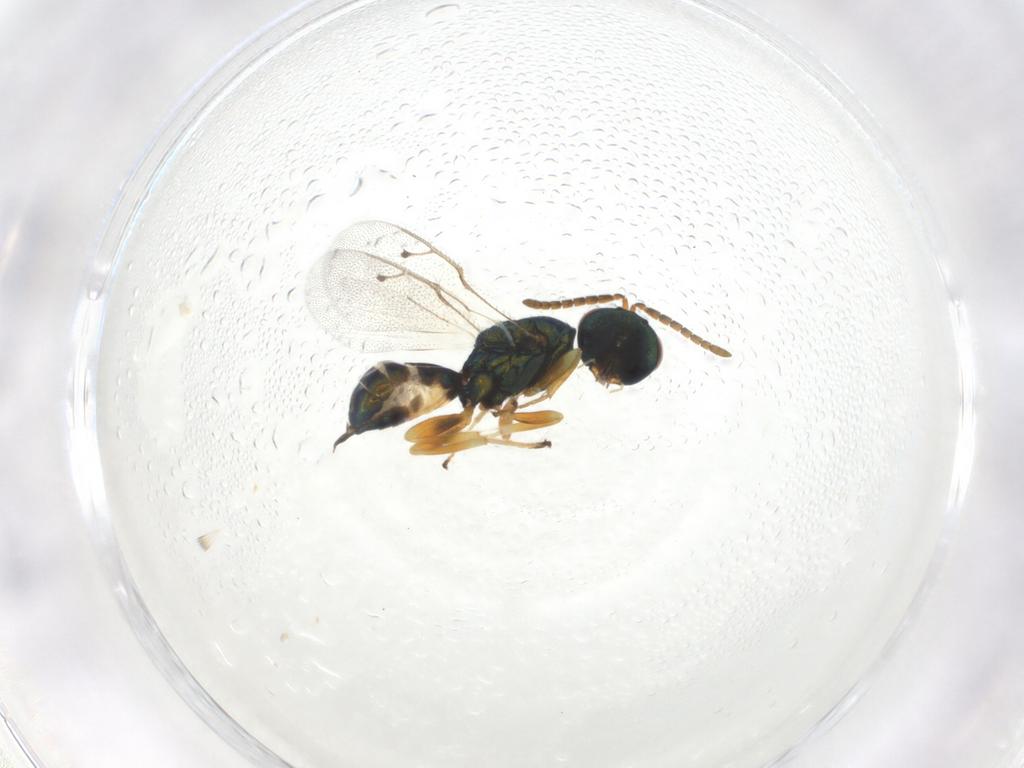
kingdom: Animalia
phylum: Arthropoda
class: Insecta
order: Hymenoptera
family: Pteromalidae
